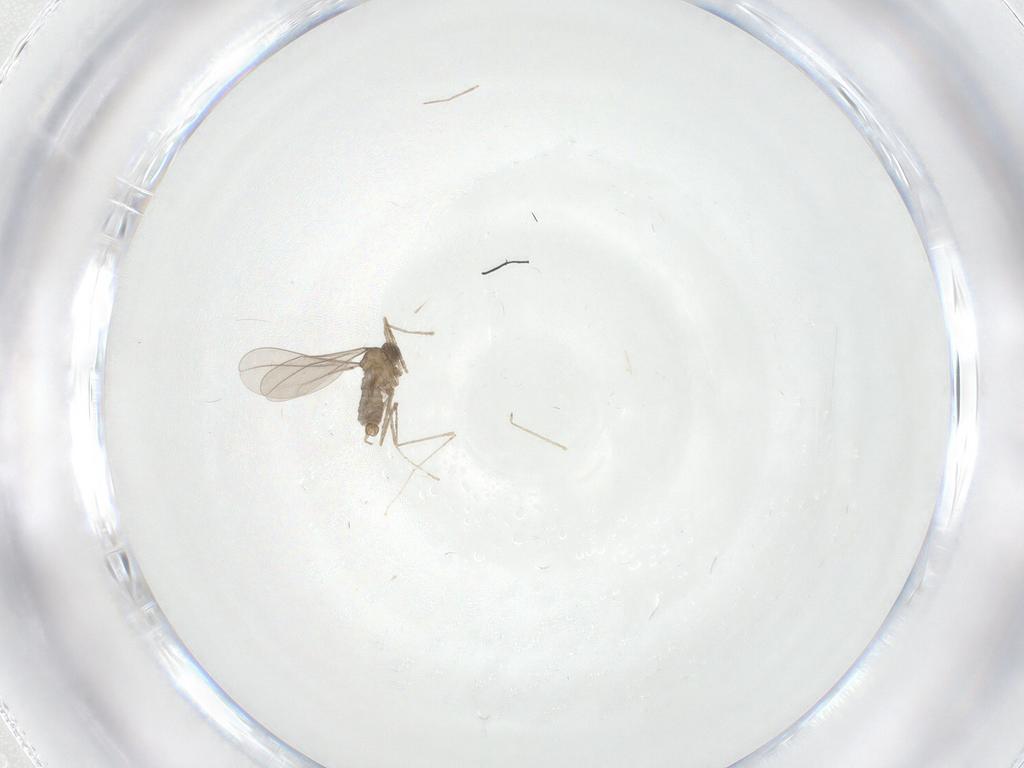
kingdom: Animalia
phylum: Arthropoda
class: Insecta
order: Diptera
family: Cecidomyiidae
